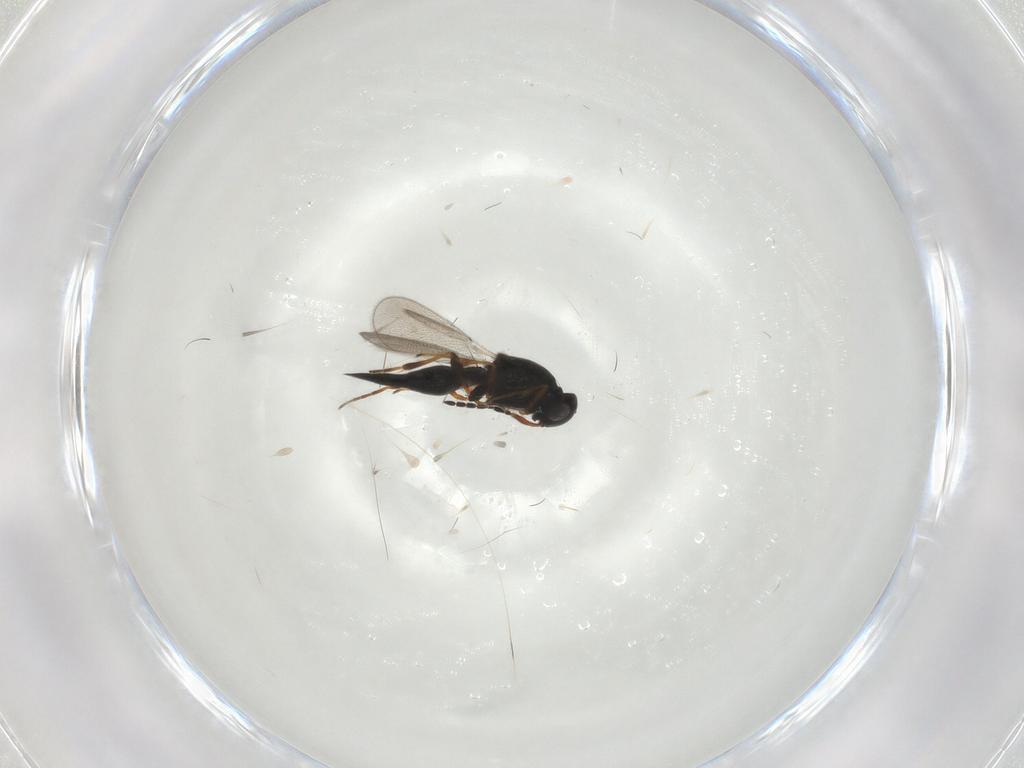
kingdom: Animalia
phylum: Arthropoda
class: Insecta
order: Hymenoptera
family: Platygastridae
